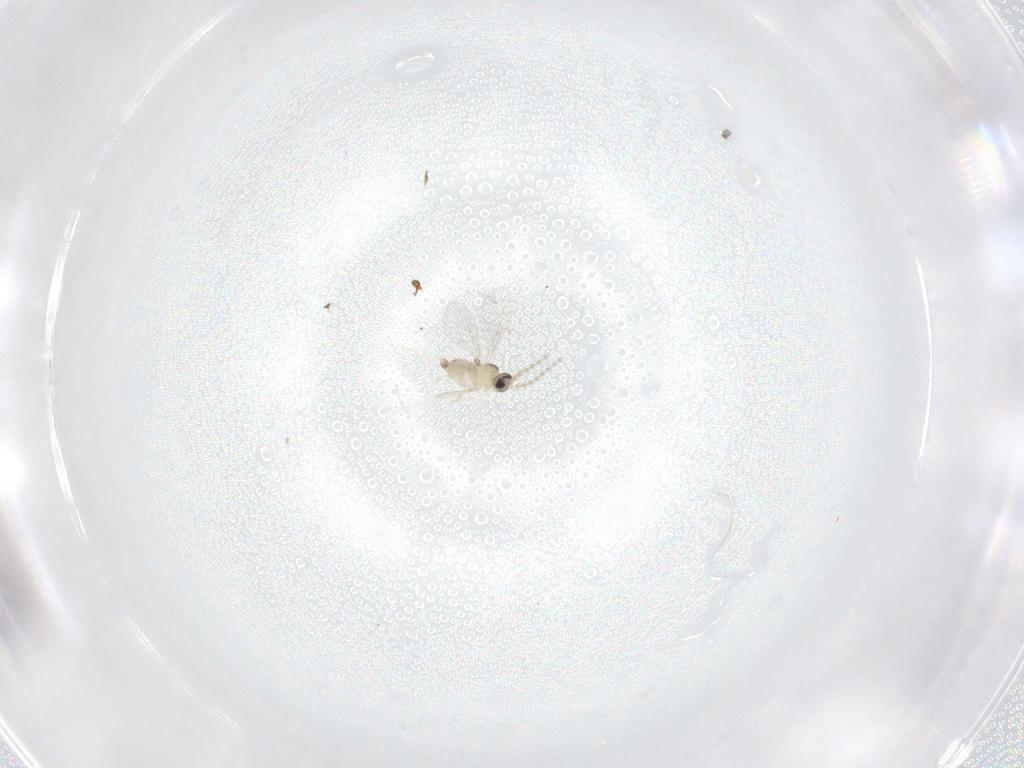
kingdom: Animalia
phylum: Arthropoda
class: Insecta
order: Diptera
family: Cecidomyiidae
